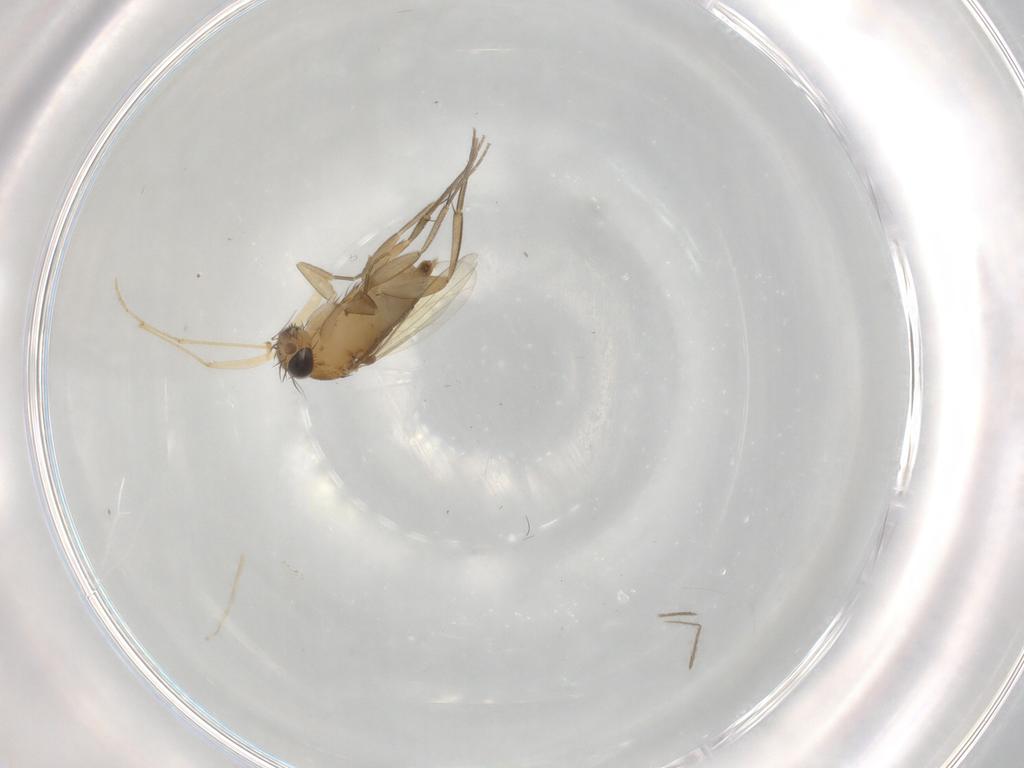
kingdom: Animalia
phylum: Arthropoda
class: Insecta
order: Diptera
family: Phoridae
